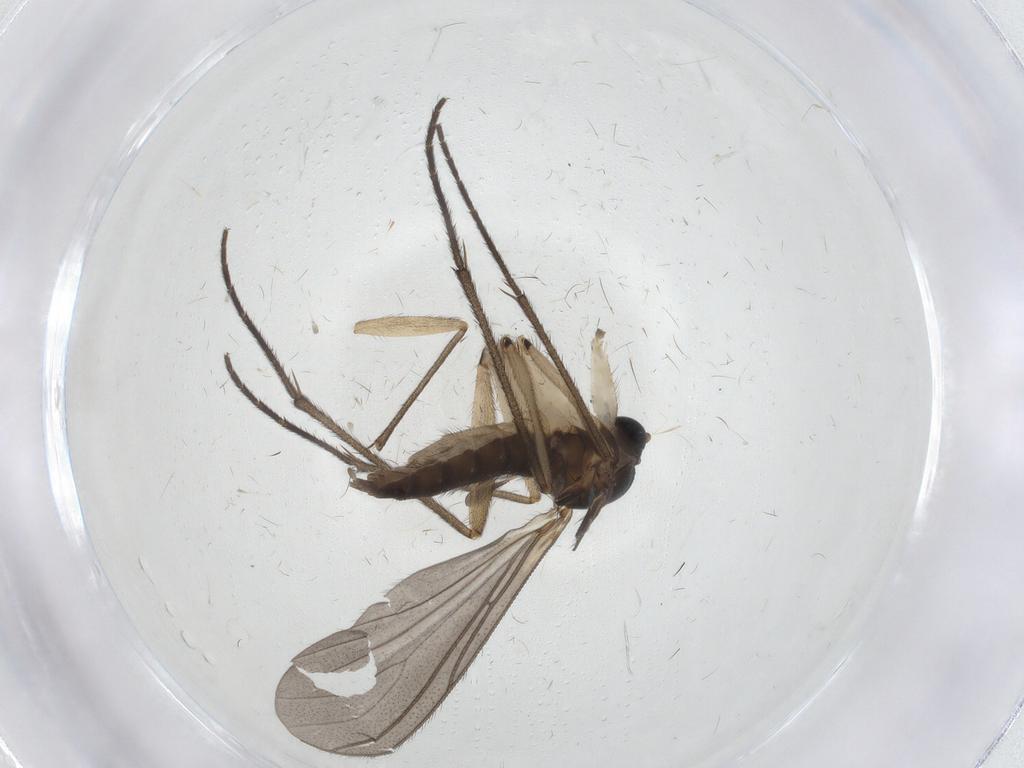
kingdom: Animalia
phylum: Arthropoda
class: Insecta
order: Diptera
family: Sciaridae
